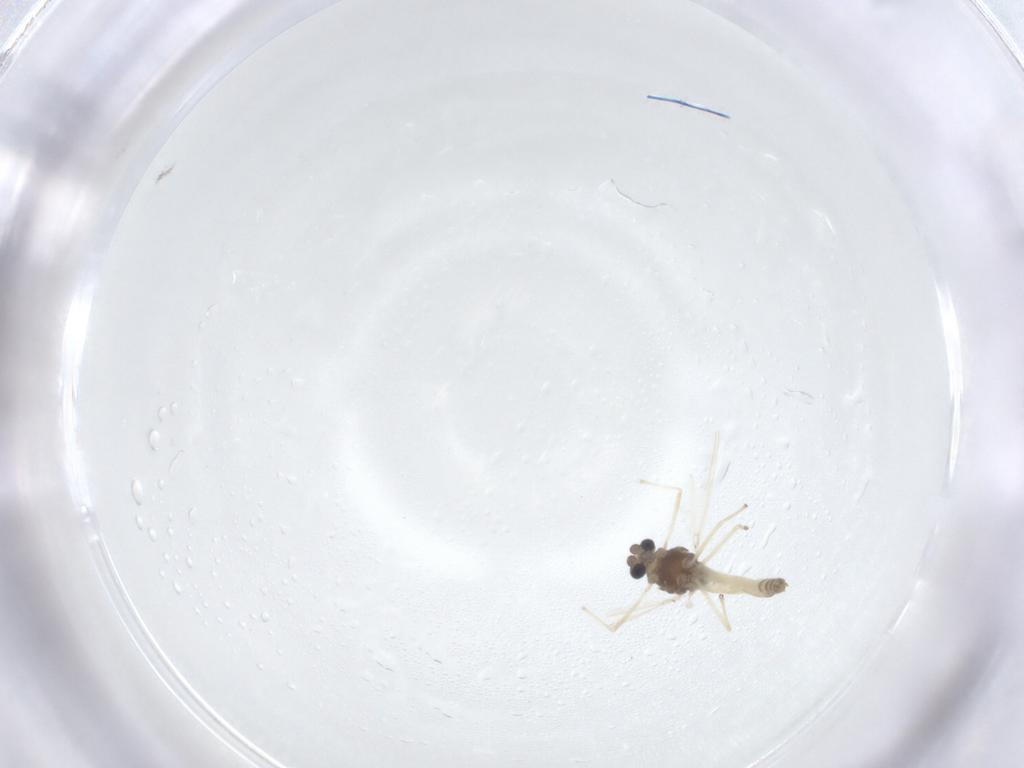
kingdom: Animalia
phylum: Arthropoda
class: Insecta
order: Diptera
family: Chironomidae
